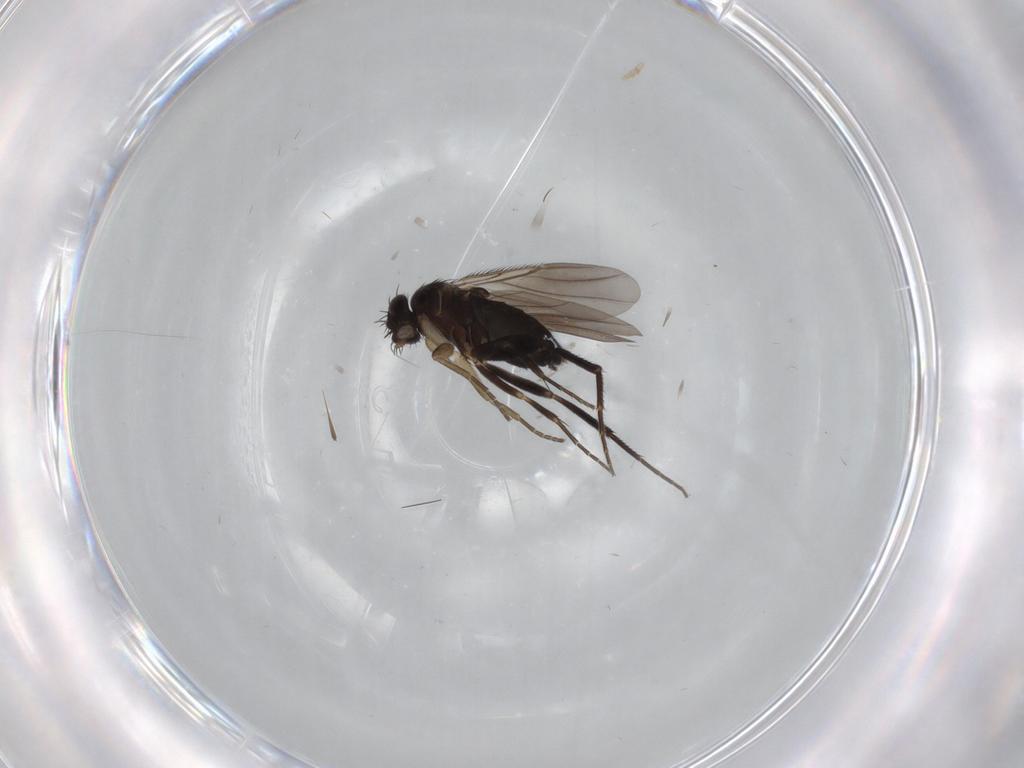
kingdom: Animalia
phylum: Arthropoda
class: Insecta
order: Diptera
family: Phoridae
